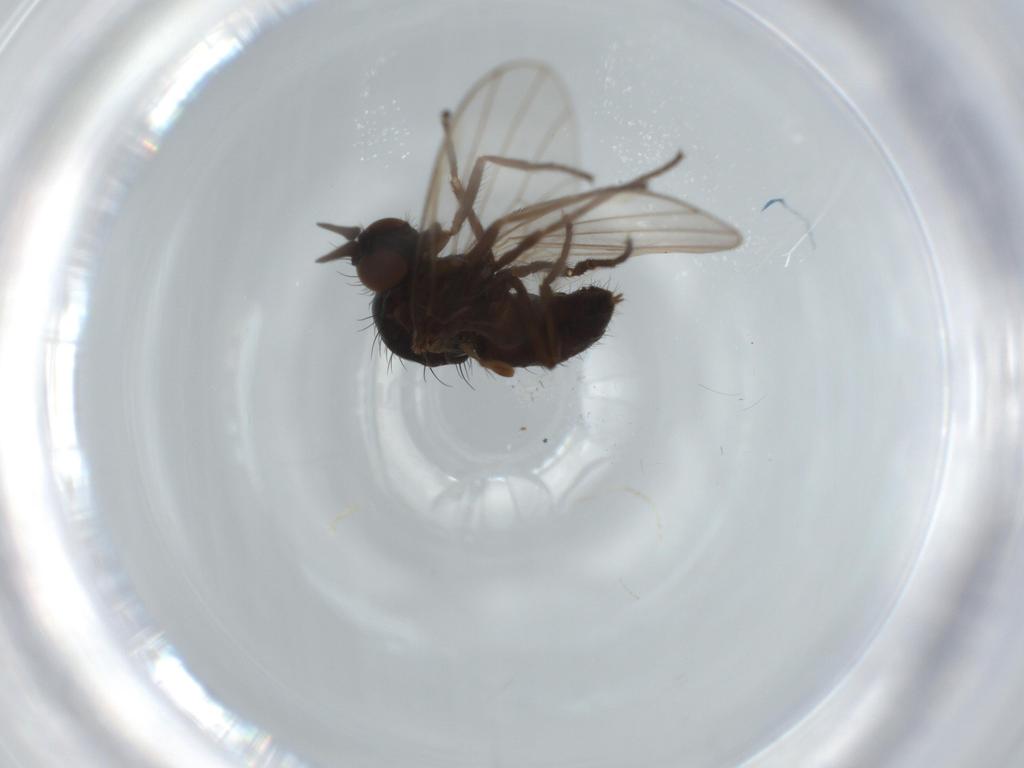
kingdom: Animalia
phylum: Arthropoda
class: Insecta
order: Diptera
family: Dolichopodidae
